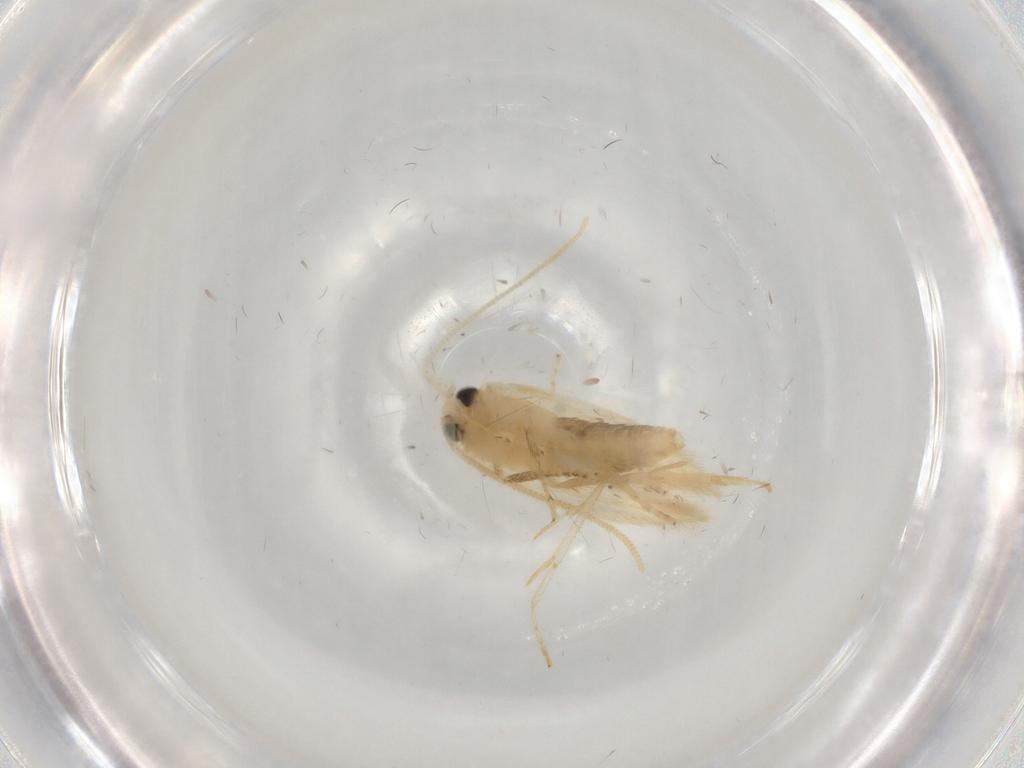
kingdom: Animalia
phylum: Arthropoda
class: Insecta
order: Lepidoptera
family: Opostegidae
